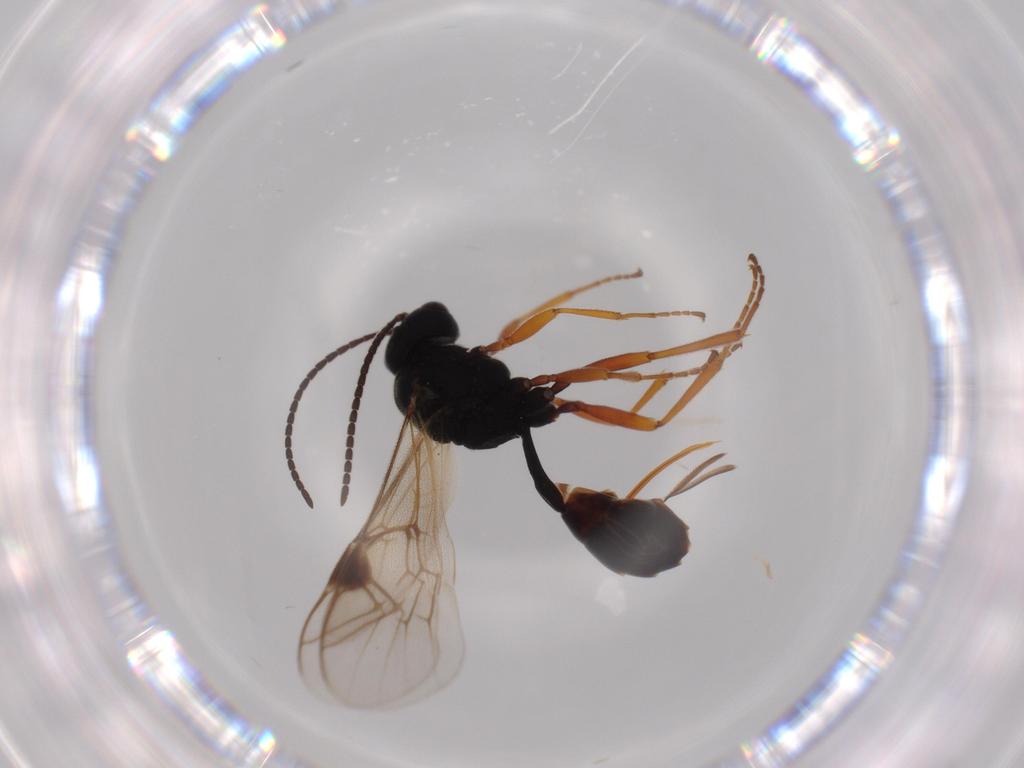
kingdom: Animalia
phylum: Arthropoda
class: Insecta
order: Hymenoptera
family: Ichneumonidae
